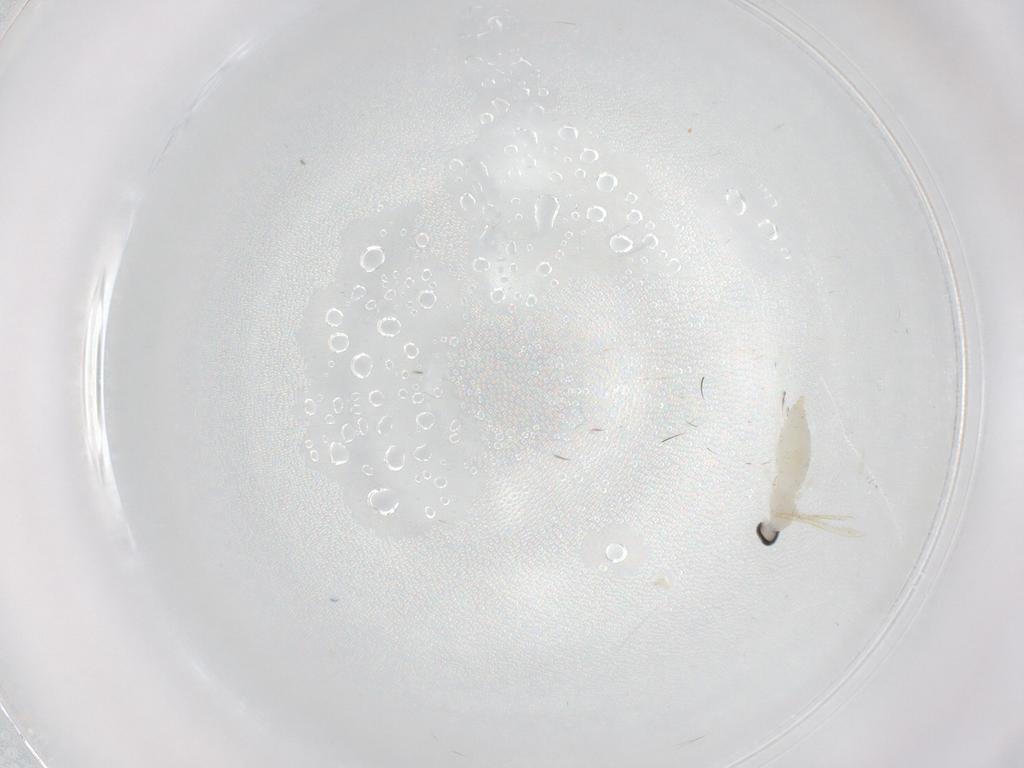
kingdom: Animalia
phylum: Arthropoda
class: Insecta
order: Diptera
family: Cecidomyiidae
